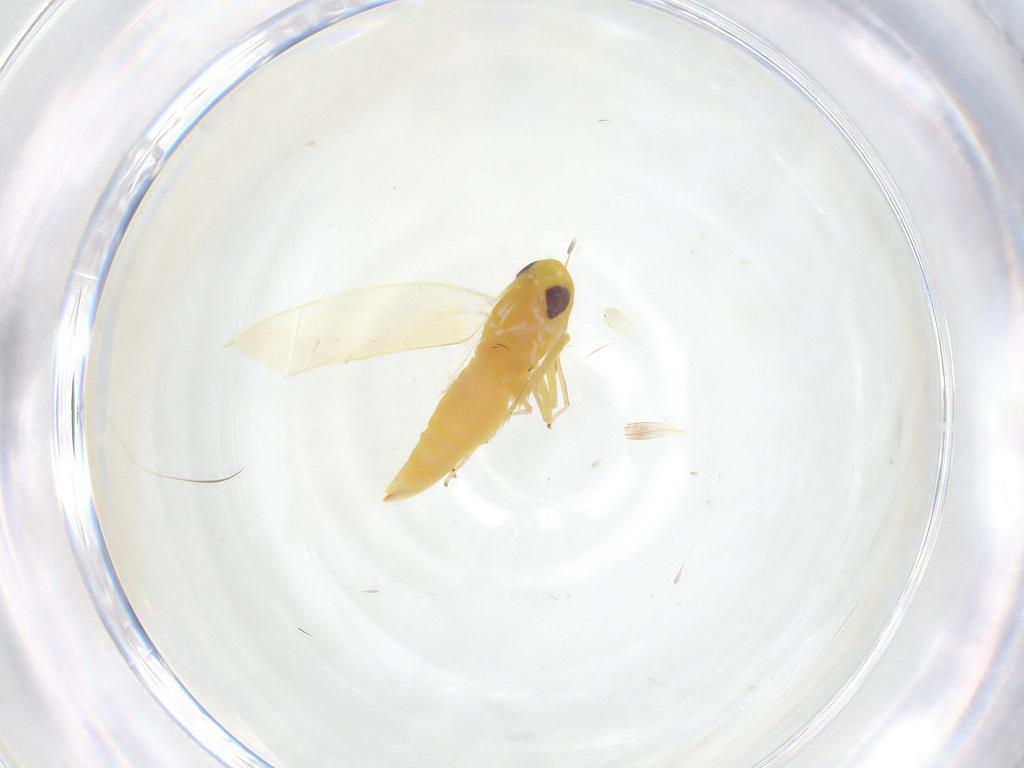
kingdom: Animalia
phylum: Arthropoda
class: Insecta
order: Hemiptera
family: Cicadellidae
